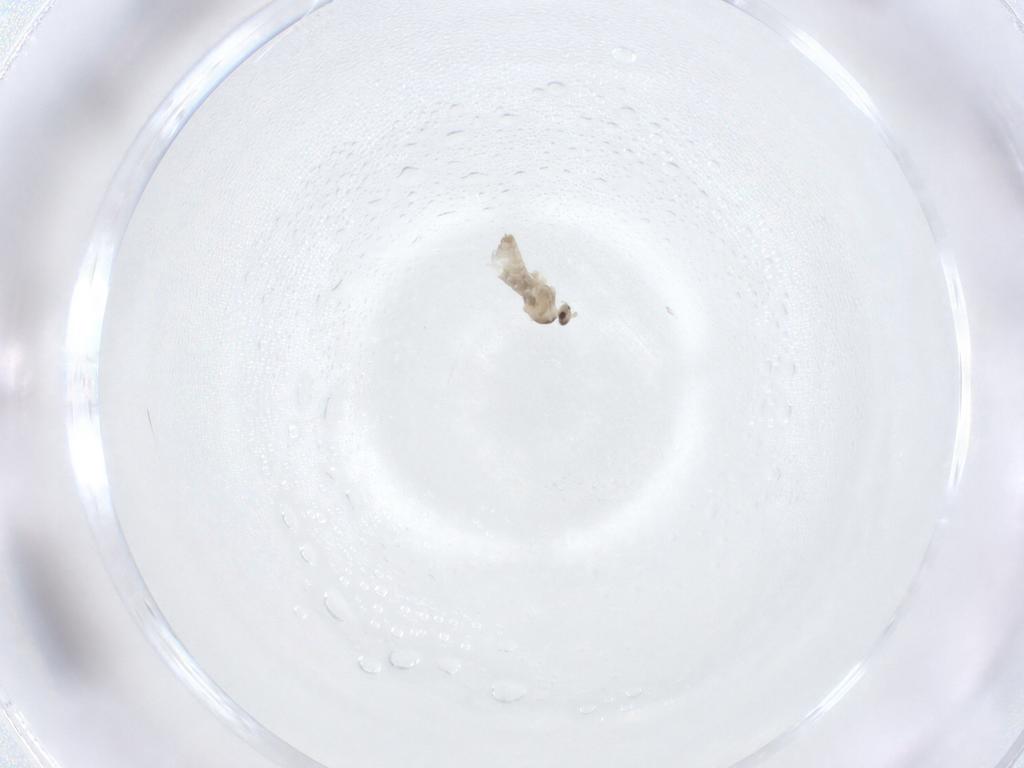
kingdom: Animalia
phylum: Arthropoda
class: Insecta
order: Diptera
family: Cecidomyiidae
